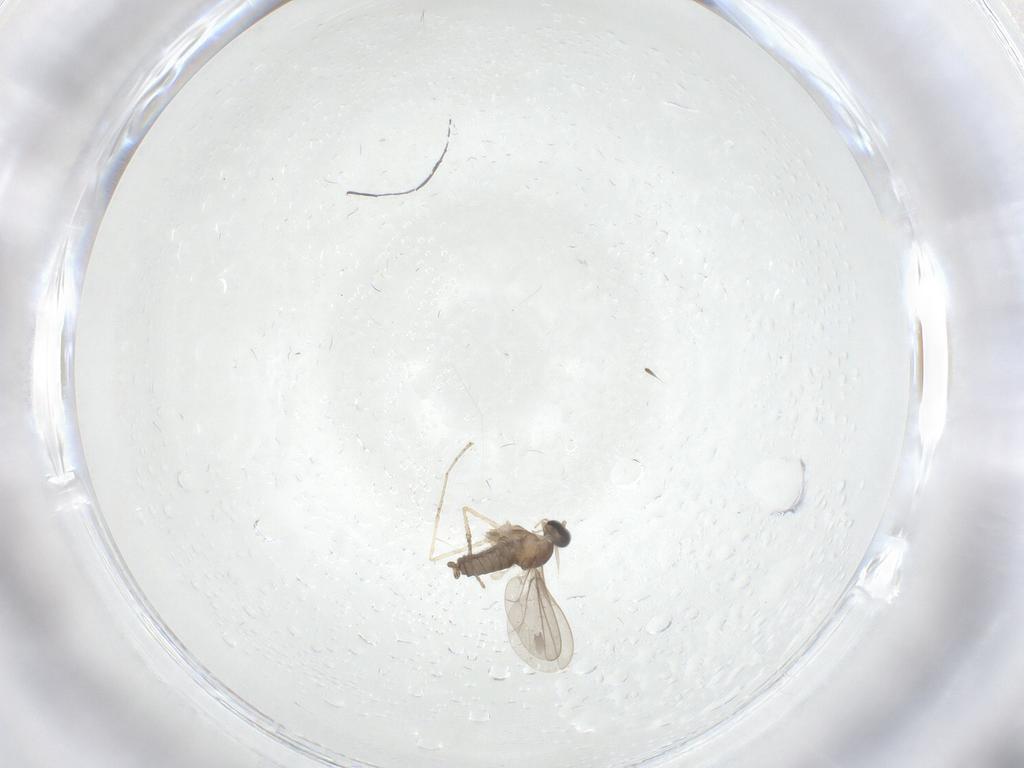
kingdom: Animalia
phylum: Arthropoda
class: Insecta
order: Diptera
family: Cecidomyiidae
